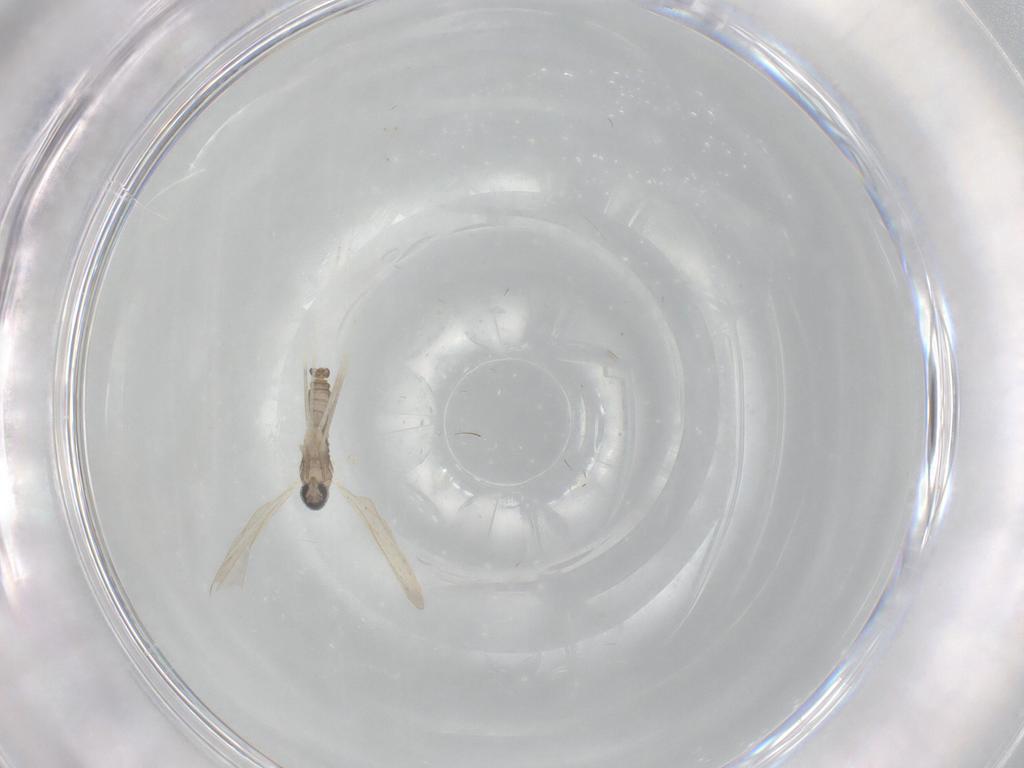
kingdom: Animalia
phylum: Arthropoda
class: Insecta
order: Diptera
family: Cecidomyiidae
